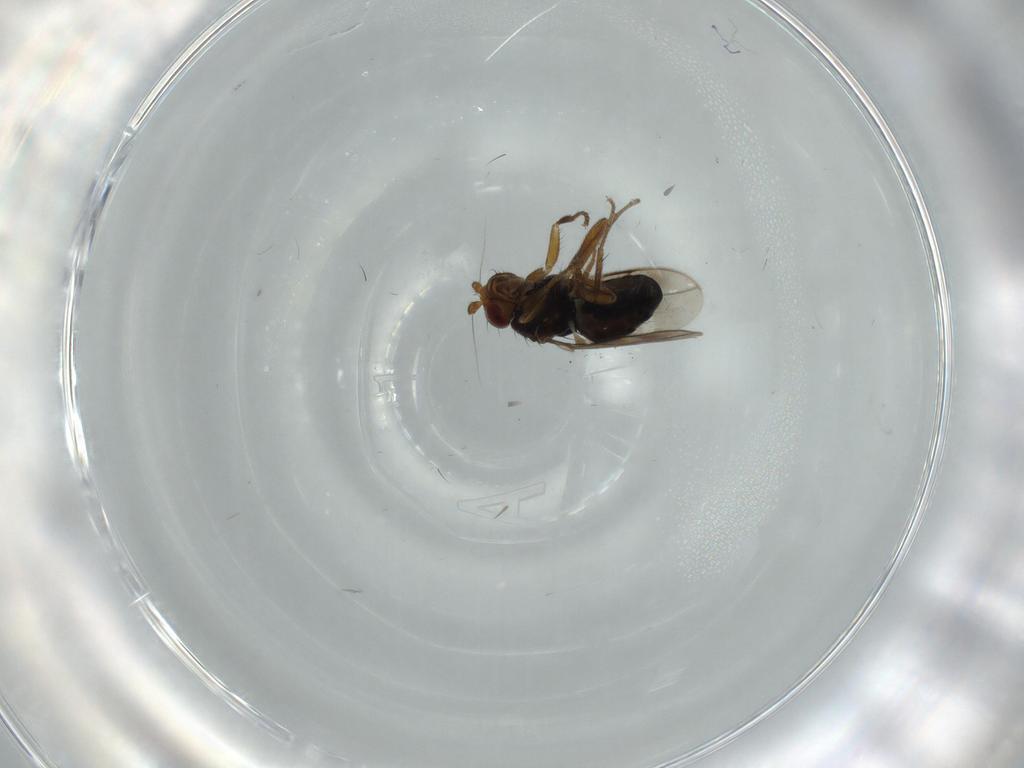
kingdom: Animalia
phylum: Arthropoda
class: Insecta
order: Diptera
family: Sphaeroceridae
